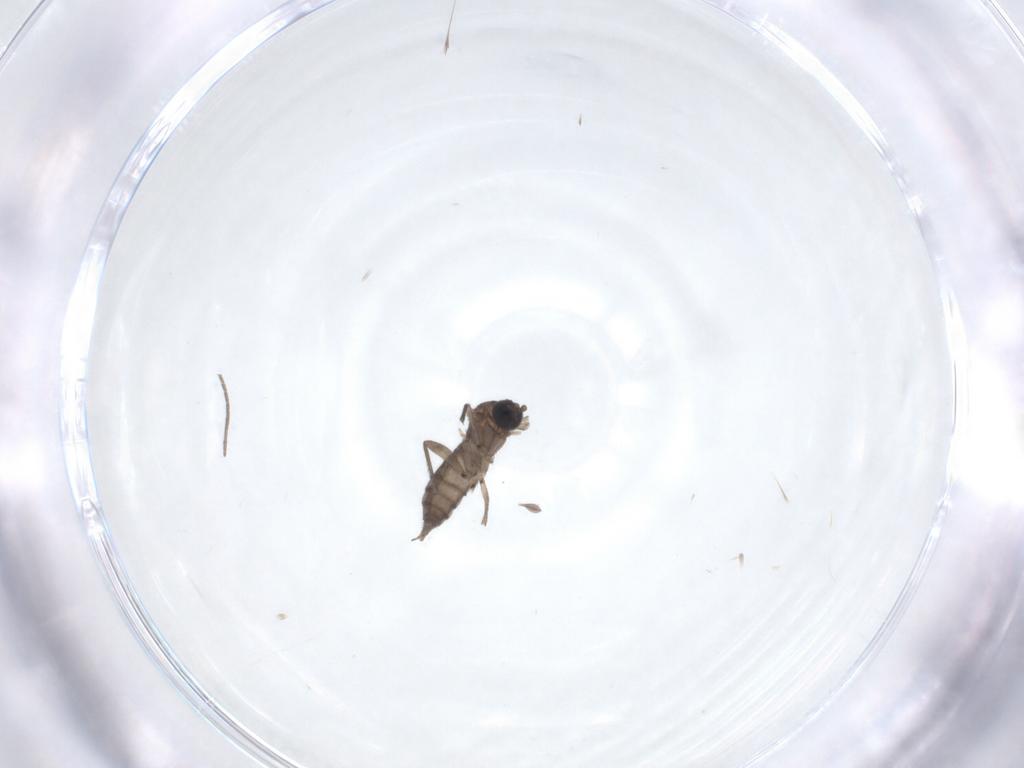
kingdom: Animalia
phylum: Arthropoda
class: Insecta
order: Diptera
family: Sciaridae
